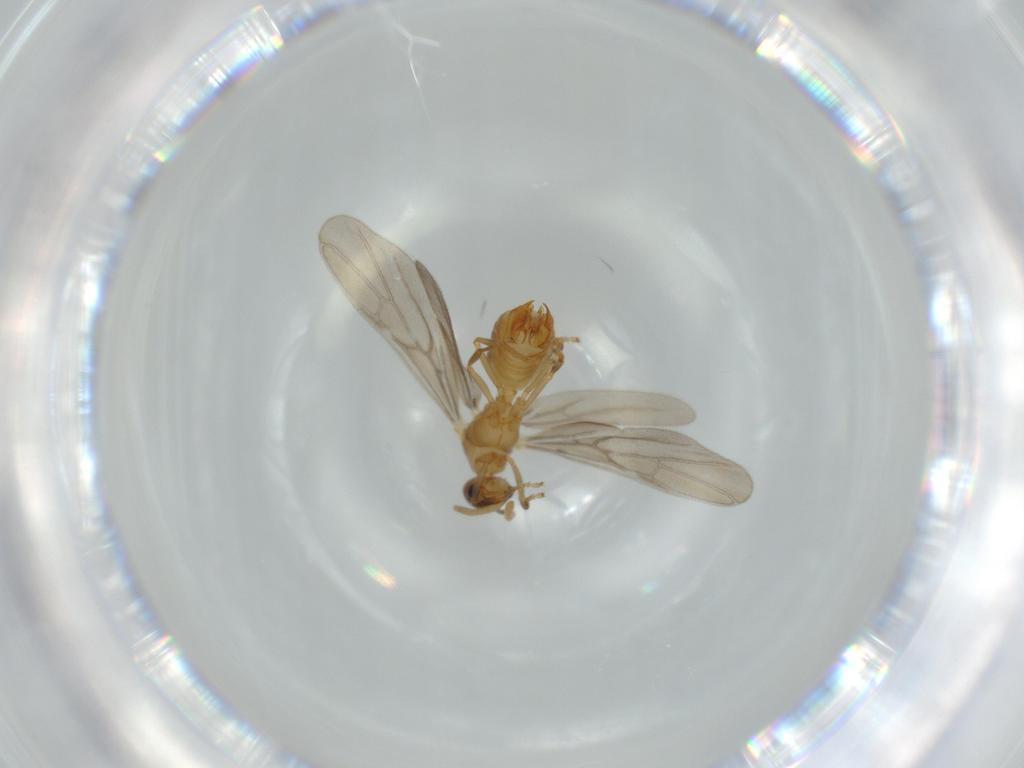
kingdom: Animalia
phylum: Arthropoda
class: Insecta
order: Hymenoptera
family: Formicidae
